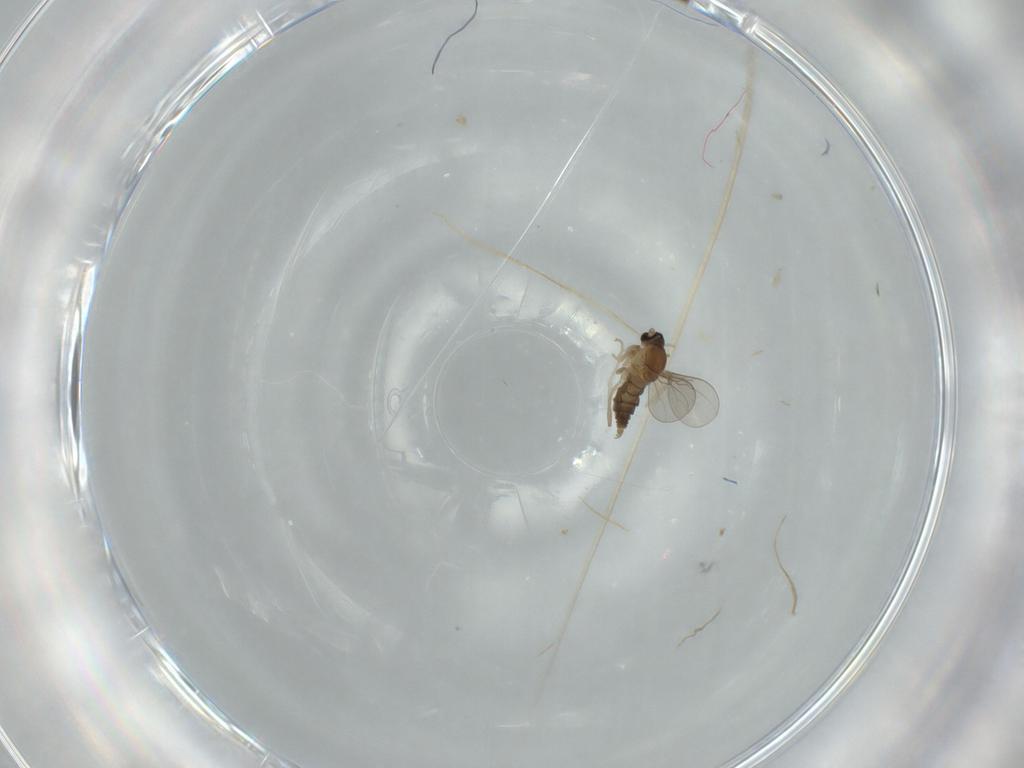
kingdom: Animalia
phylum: Arthropoda
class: Insecta
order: Diptera
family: Cecidomyiidae
